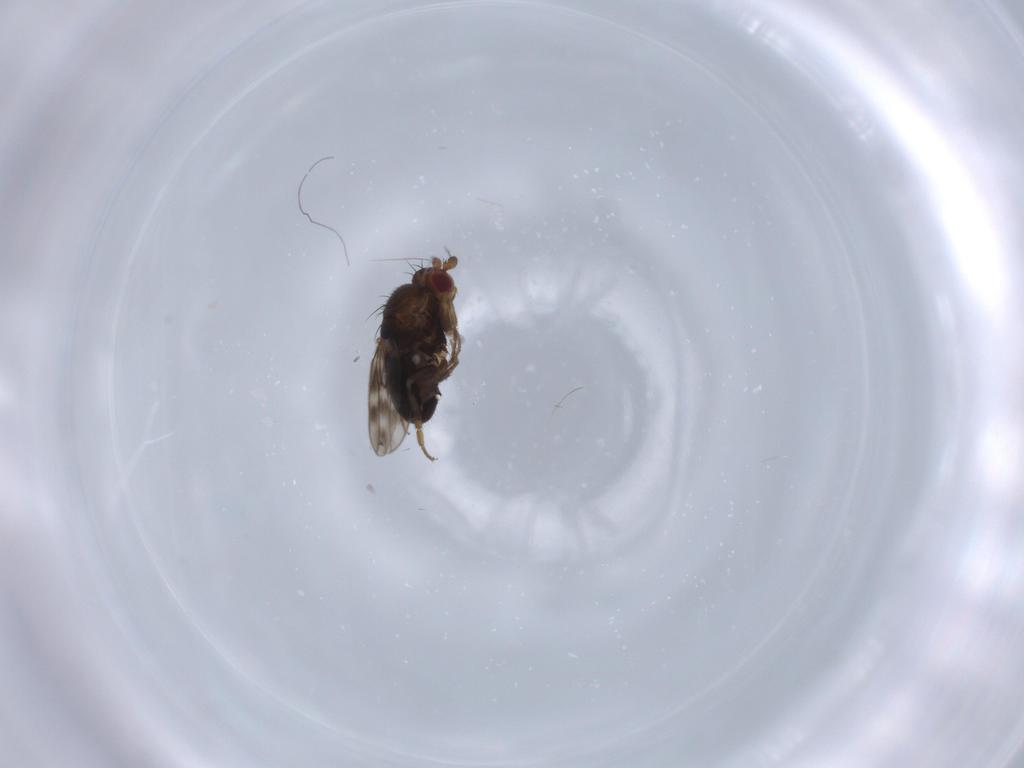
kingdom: Animalia
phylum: Arthropoda
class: Insecta
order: Diptera
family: Sphaeroceridae
